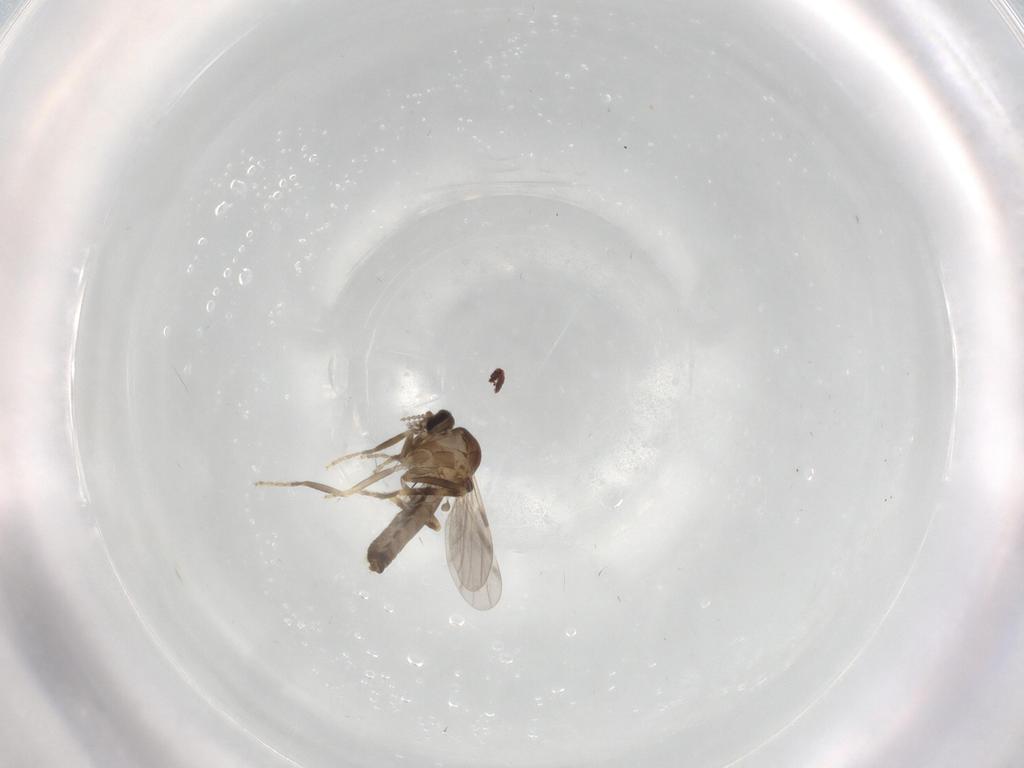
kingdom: Animalia
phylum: Arthropoda
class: Insecta
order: Diptera
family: Ceratopogonidae
